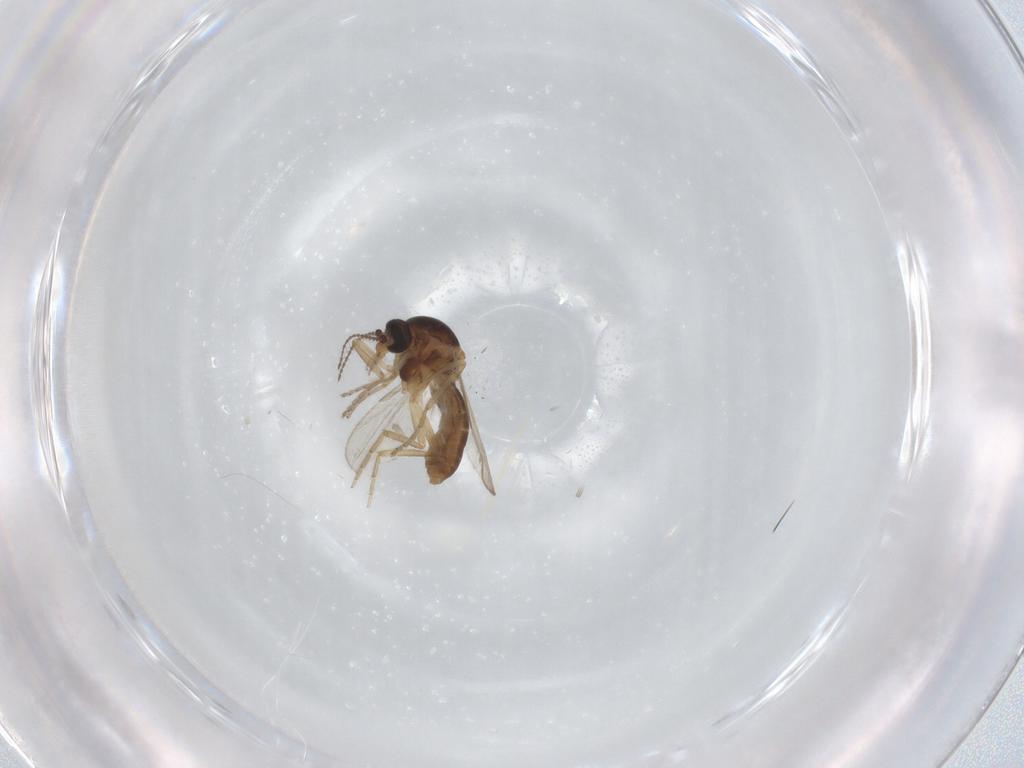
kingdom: Animalia
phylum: Arthropoda
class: Insecta
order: Diptera
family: Ceratopogonidae
